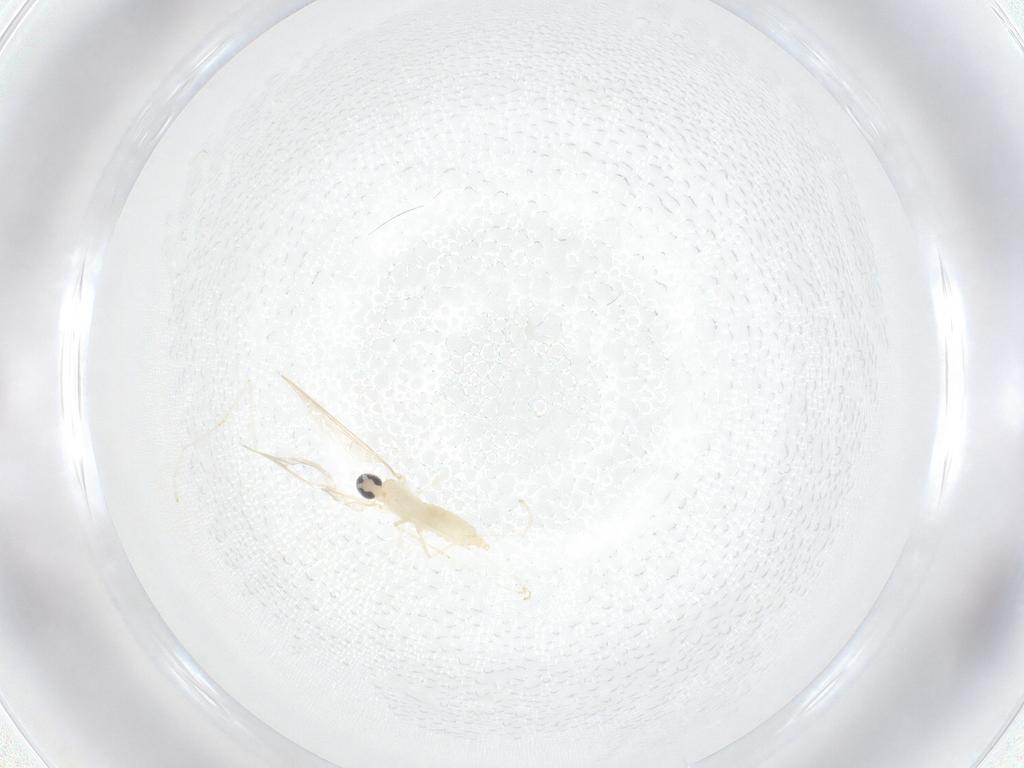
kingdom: Animalia
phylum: Arthropoda
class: Insecta
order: Diptera
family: Cecidomyiidae
